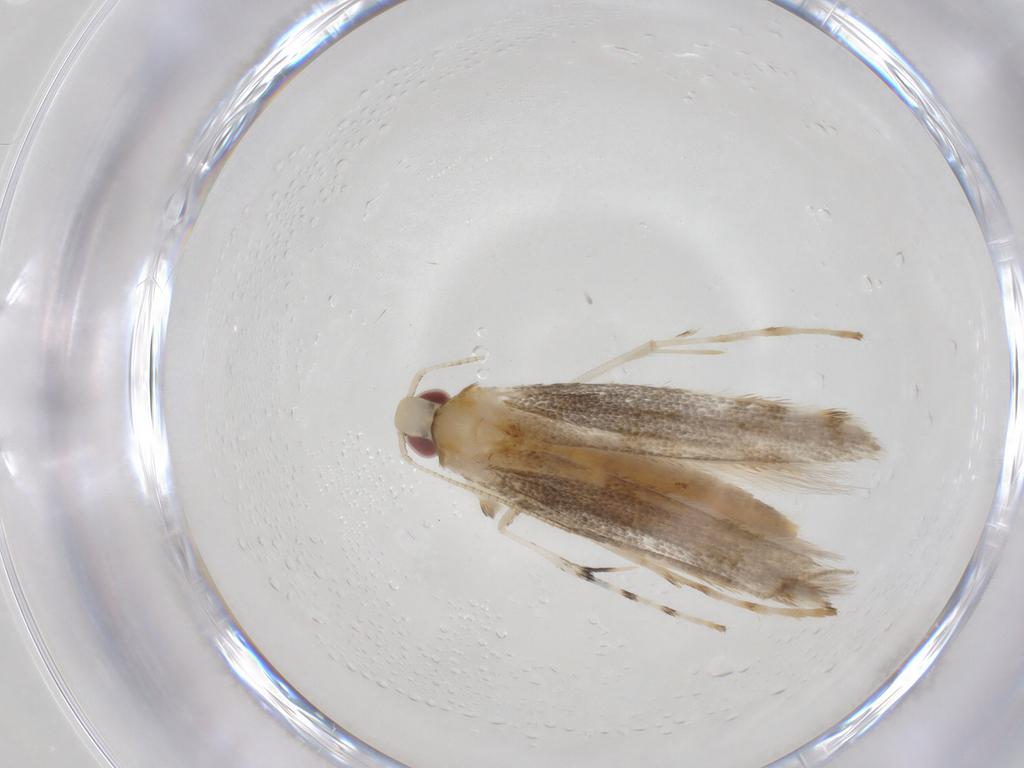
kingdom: Animalia
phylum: Arthropoda
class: Insecta
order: Lepidoptera
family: Gracillariidae
